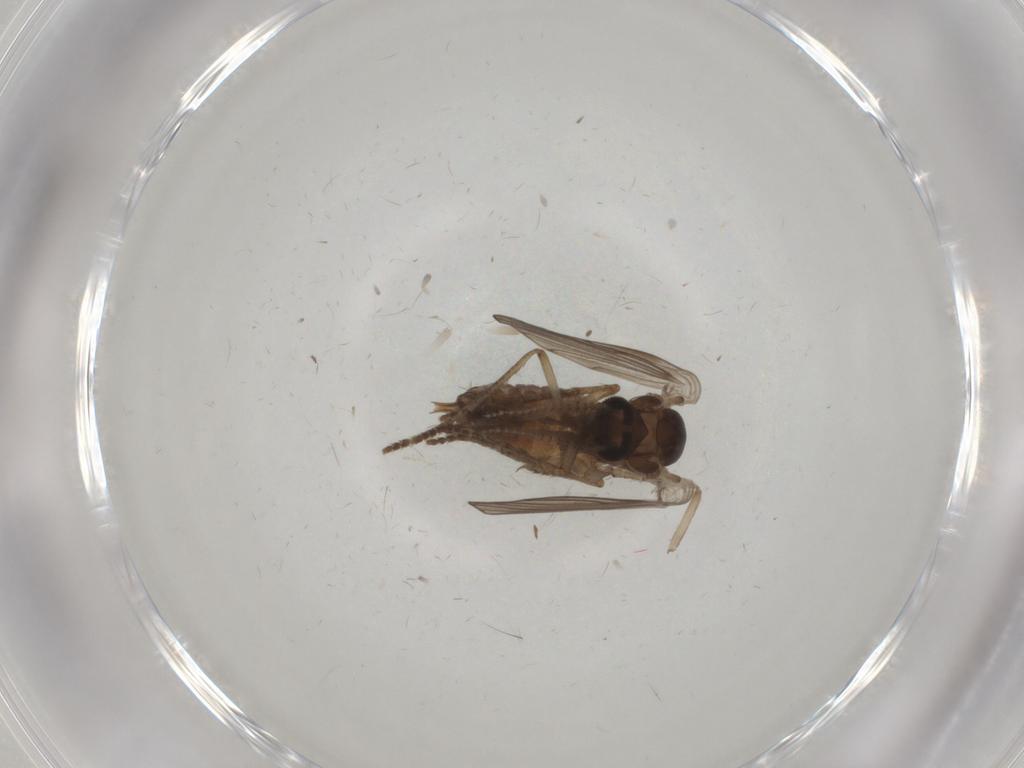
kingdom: Animalia
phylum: Arthropoda
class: Insecta
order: Diptera
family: Psychodidae
